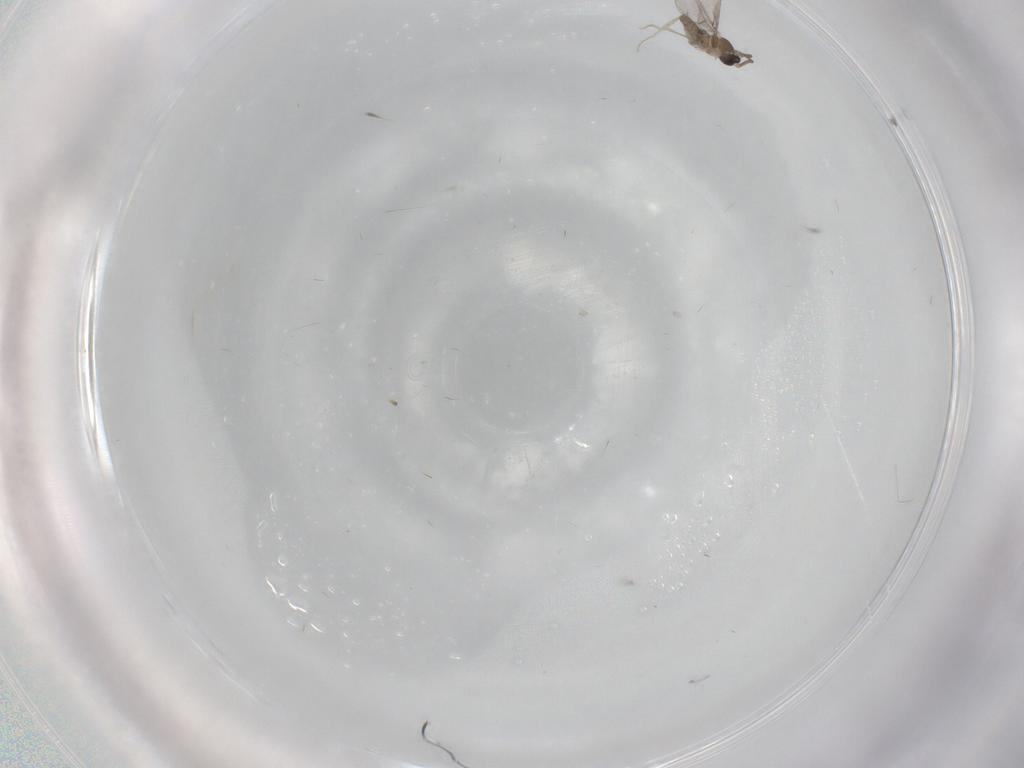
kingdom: Animalia
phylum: Arthropoda
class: Insecta
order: Diptera
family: Cecidomyiidae
